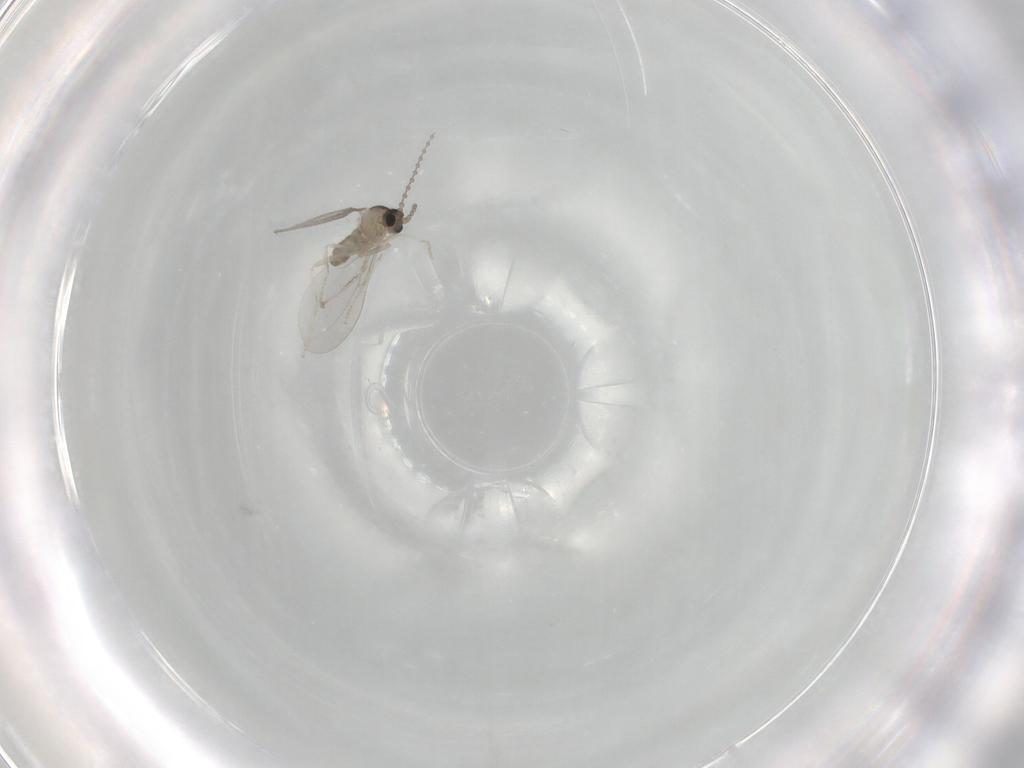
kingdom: Animalia
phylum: Arthropoda
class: Insecta
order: Diptera
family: Cecidomyiidae
